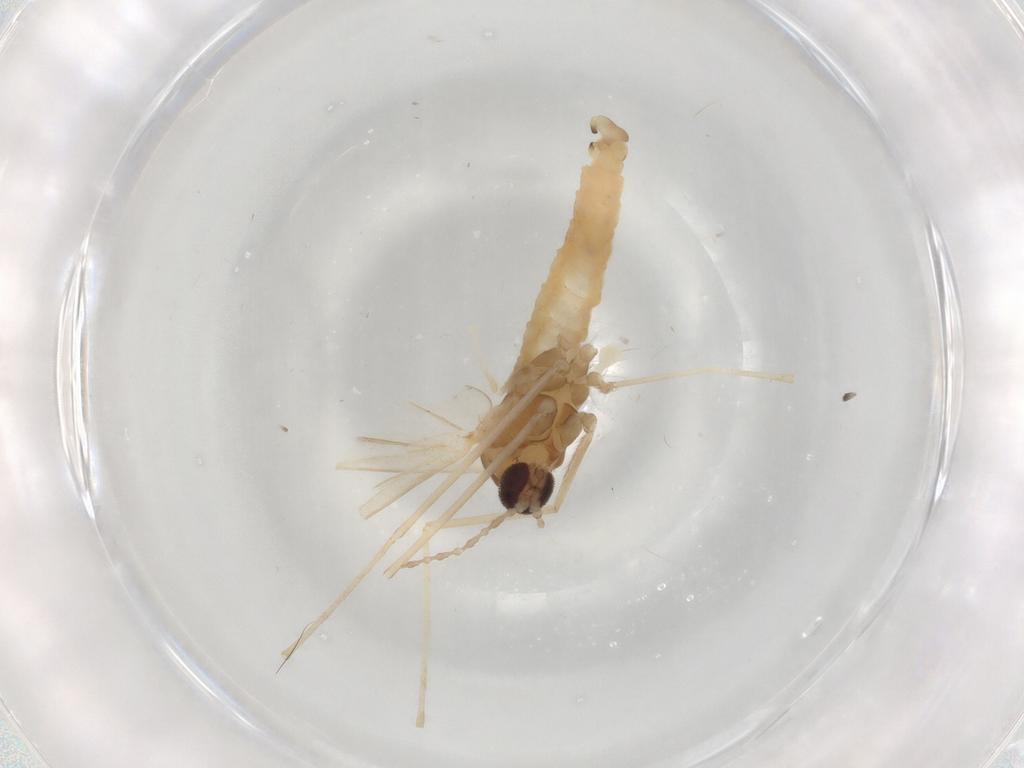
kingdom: Animalia
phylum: Arthropoda
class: Insecta
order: Diptera
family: Cecidomyiidae
